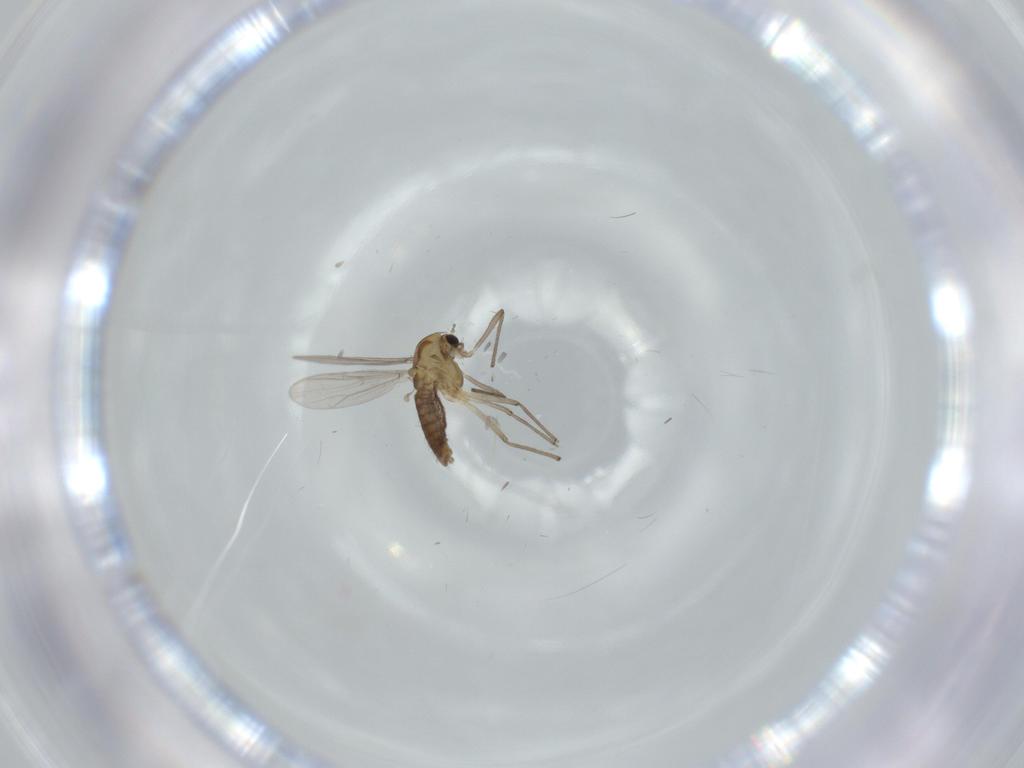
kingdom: Animalia
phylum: Arthropoda
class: Insecta
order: Diptera
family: Chironomidae
